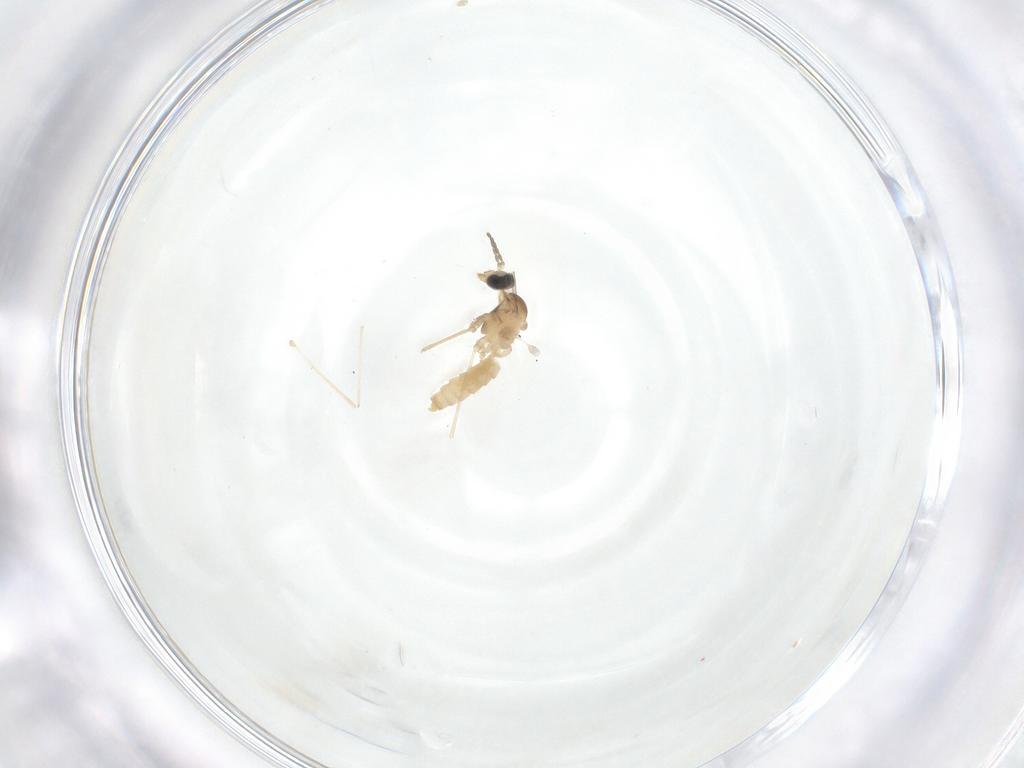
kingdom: Animalia
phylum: Arthropoda
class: Insecta
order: Diptera
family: Cecidomyiidae
